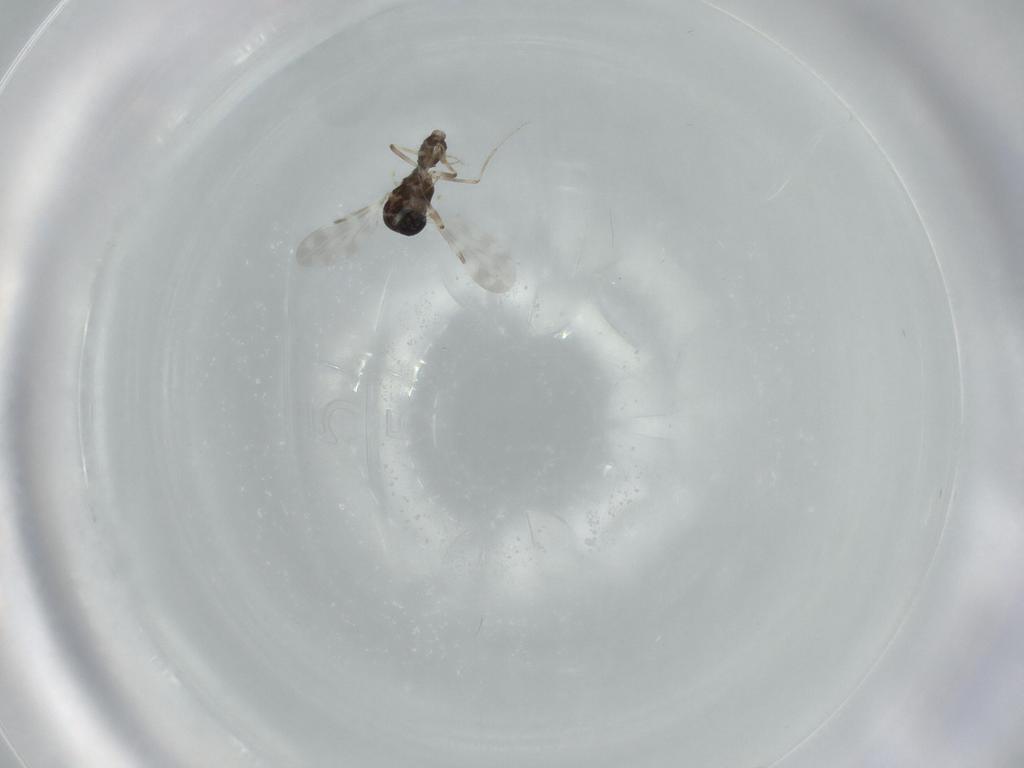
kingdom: Animalia
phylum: Arthropoda
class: Insecta
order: Diptera
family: Ceratopogonidae
